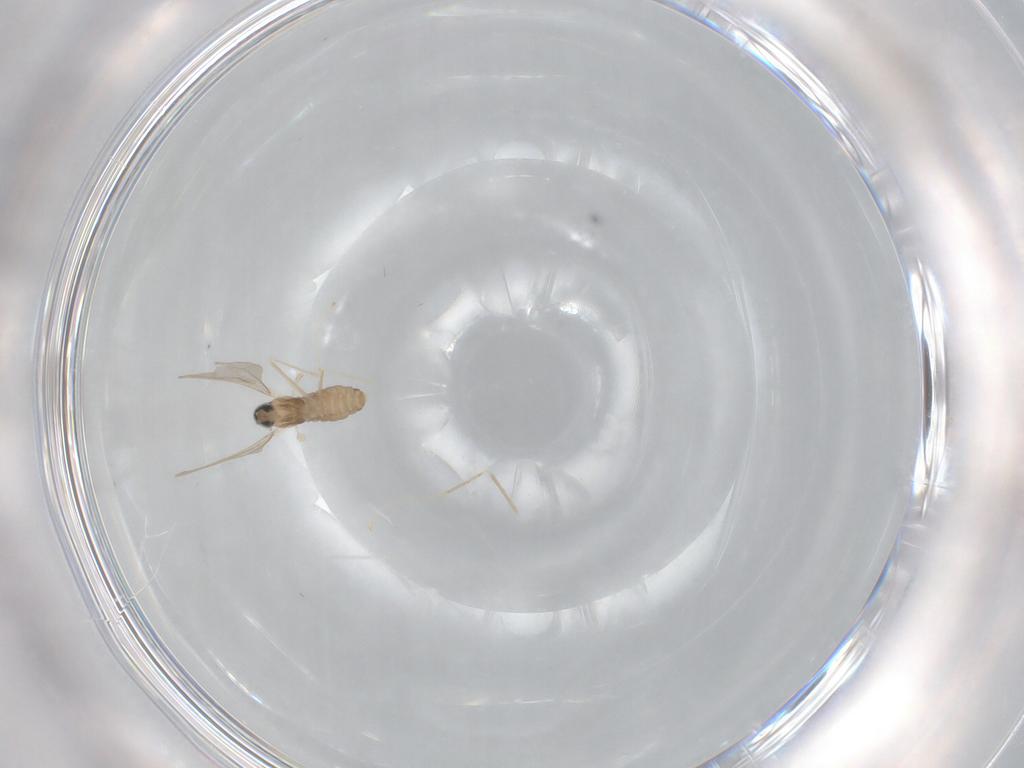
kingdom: Animalia
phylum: Arthropoda
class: Insecta
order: Diptera
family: Cecidomyiidae
